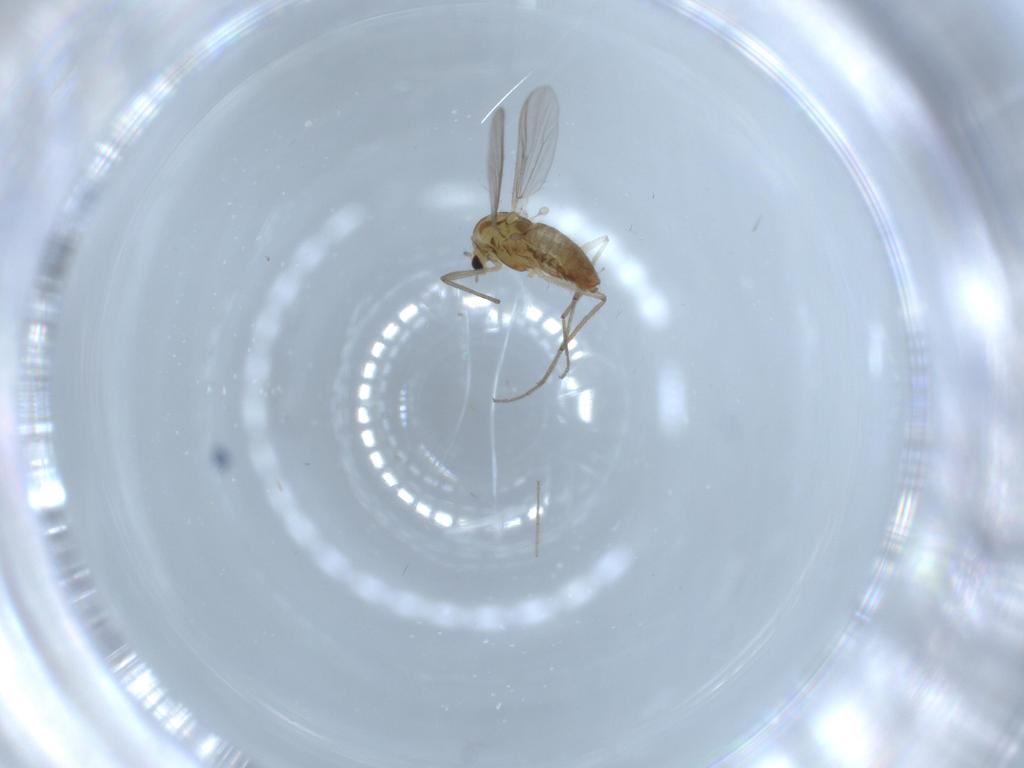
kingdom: Animalia
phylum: Arthropoda
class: Insecta
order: Diptera
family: Chironomidae
